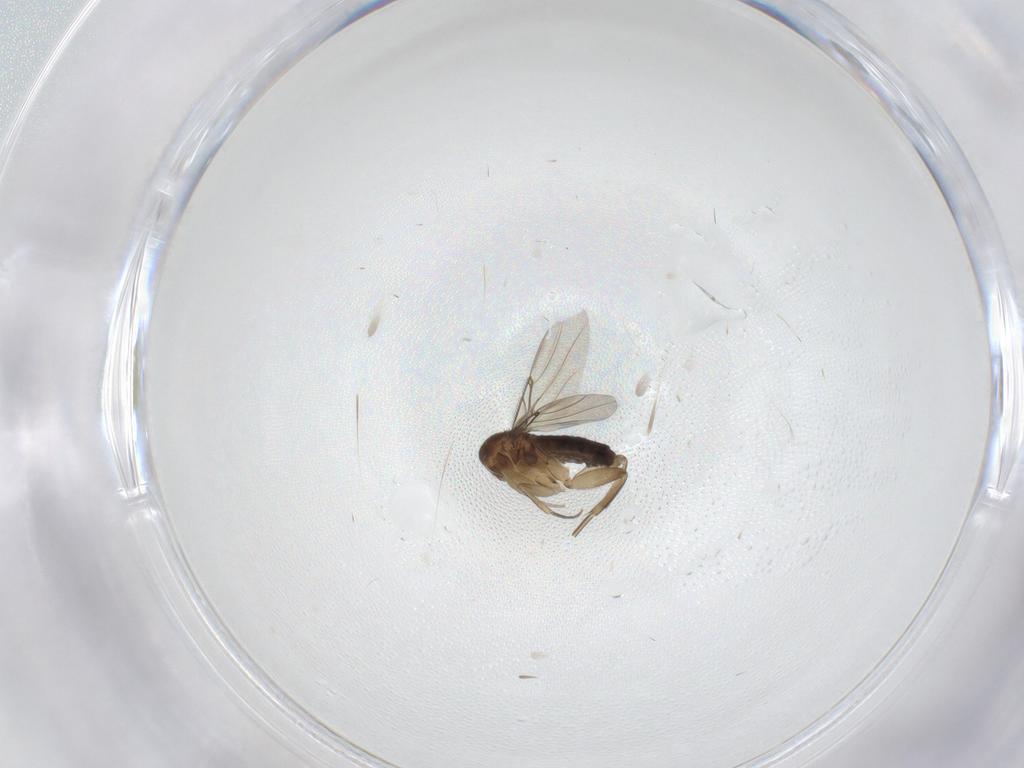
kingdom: Animalia
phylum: Arthropoda
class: Insecta
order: Diptera
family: Phoridae
